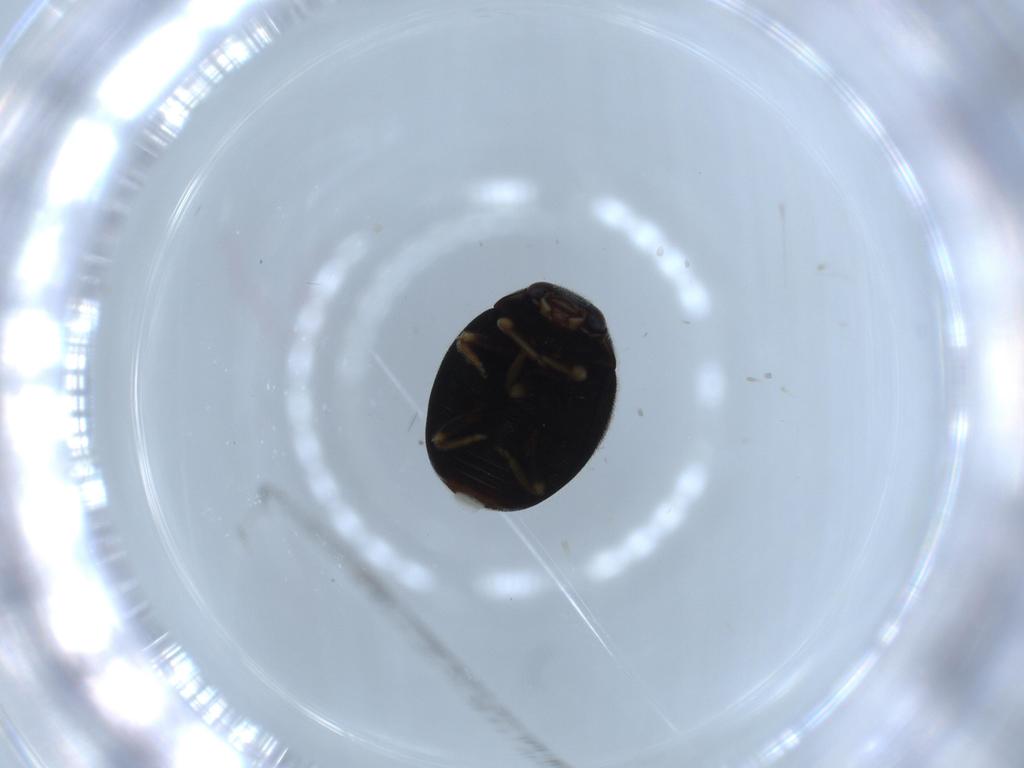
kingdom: Animalia
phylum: Arthropoda
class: Insecta
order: Coleoptera
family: Coccinellidae
